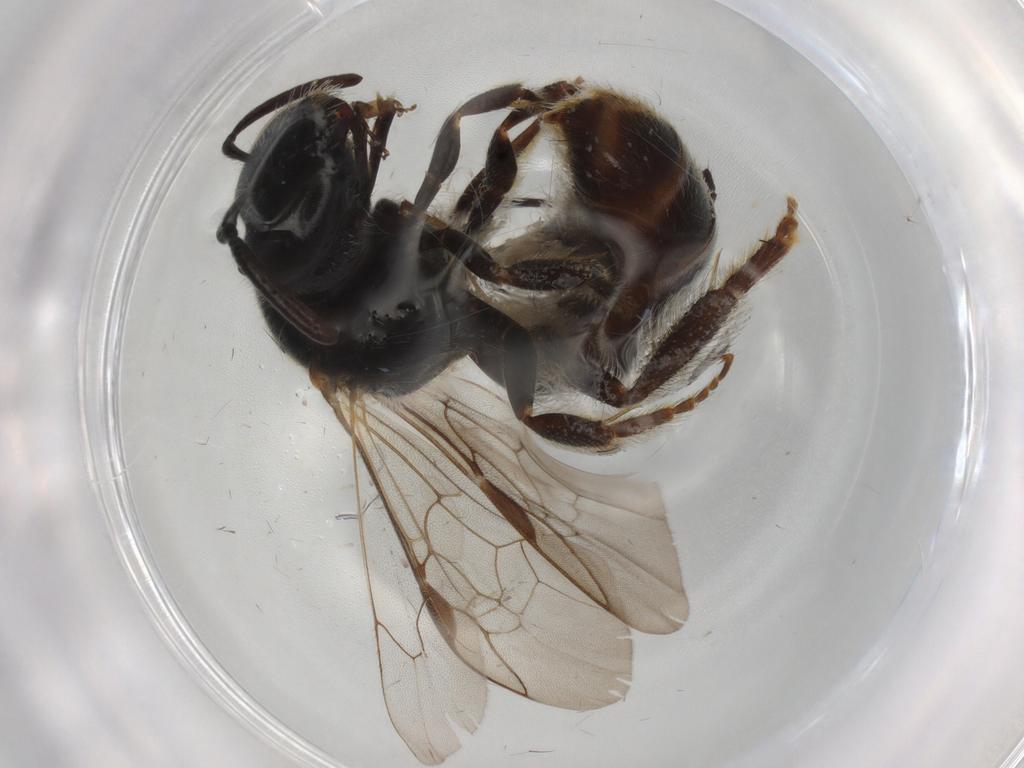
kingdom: Animalia
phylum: Arthropoda
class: Insecta
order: Hymenoptera
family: Halictidae
